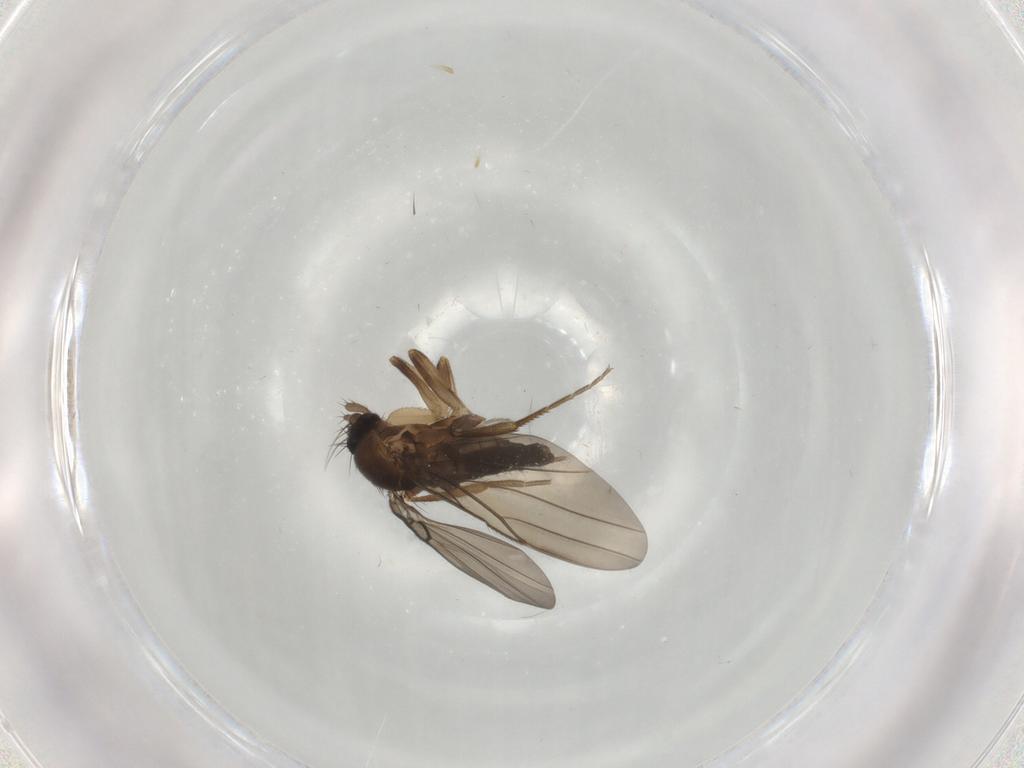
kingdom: Animalia
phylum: Arthropoda
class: Insecta
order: Diptera
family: Phoridae
